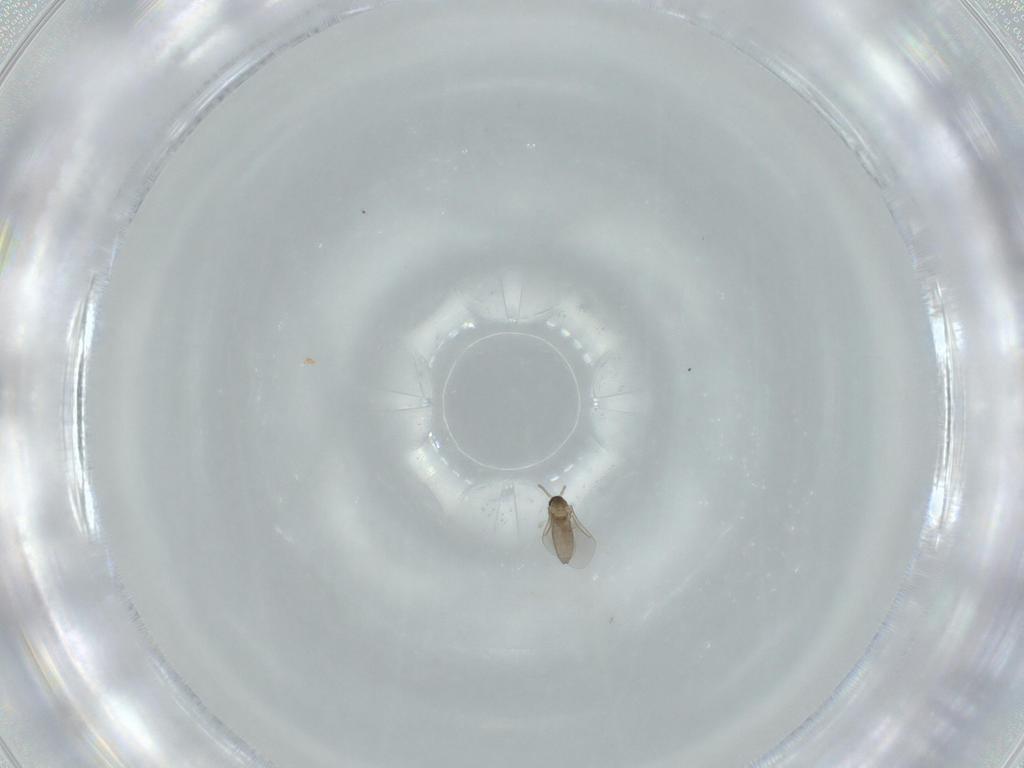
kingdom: Animalia
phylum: Arthropoda
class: Insecta
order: Diptera
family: Cecidomyiidae
